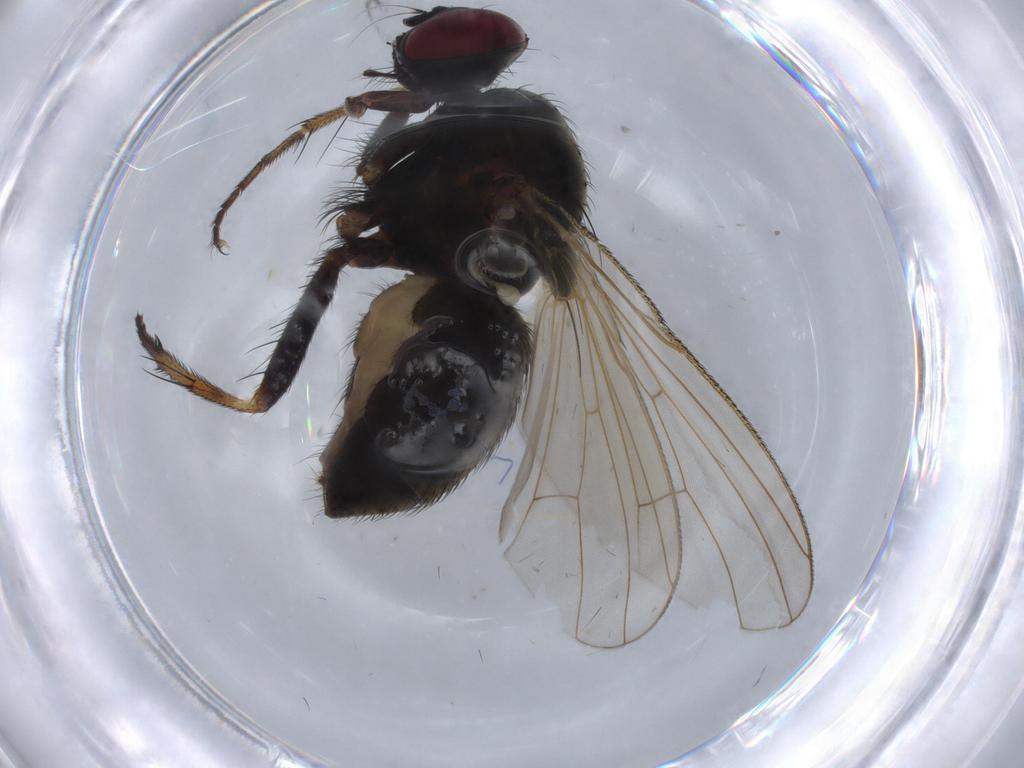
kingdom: Animalia
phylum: Arthropoda
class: Insecta
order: Diptera
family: Muscidae
